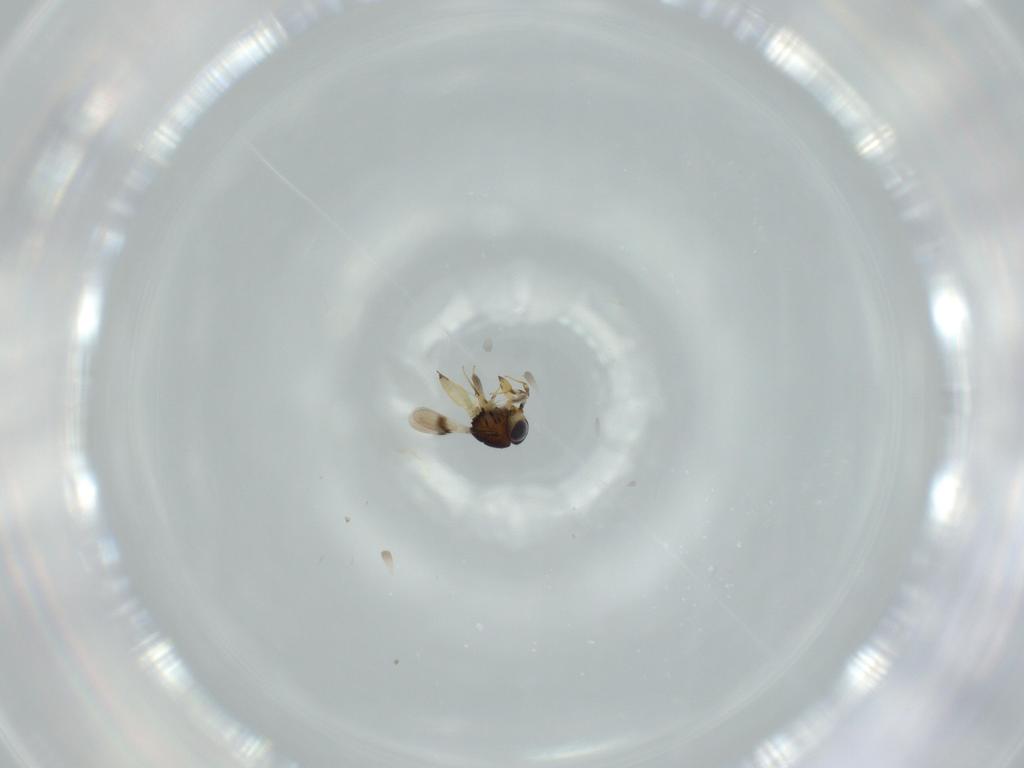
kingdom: Animalia
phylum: Arthropoda
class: Insecta
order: Hymenoptera
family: Scelionidae
